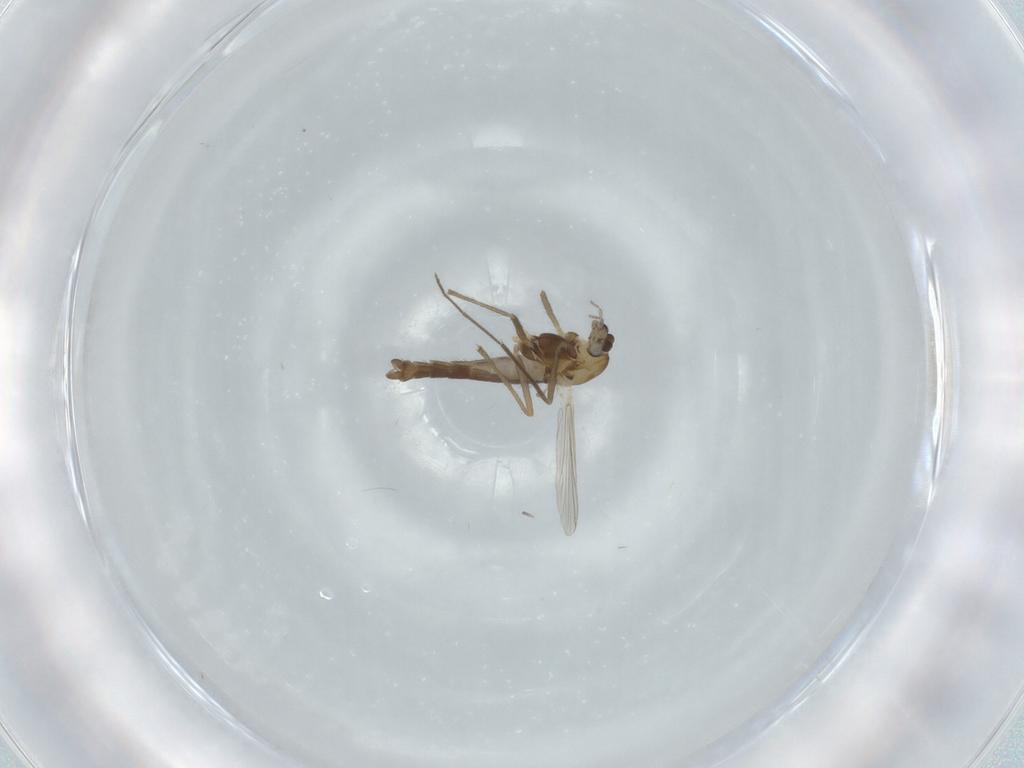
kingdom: Animalia
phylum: Arthropoda
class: Insecta
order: Diptera
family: Chironomidae
